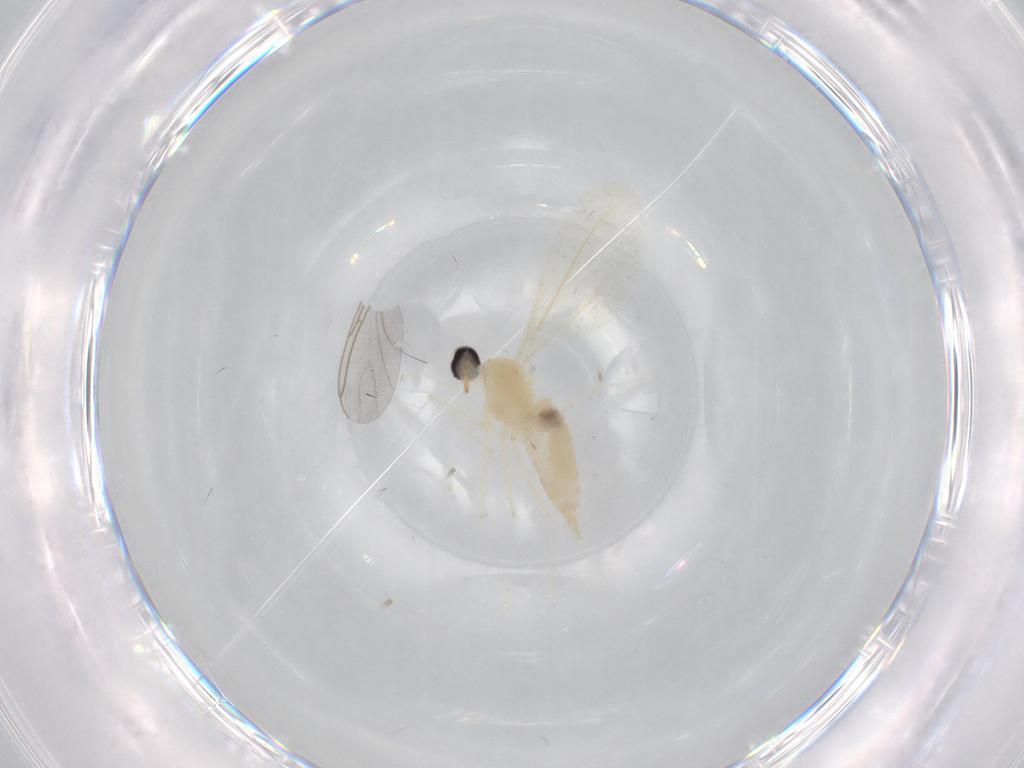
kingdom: Animalia
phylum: Arthropoda
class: Insecta
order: Diptera
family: Cecidomyiidae
